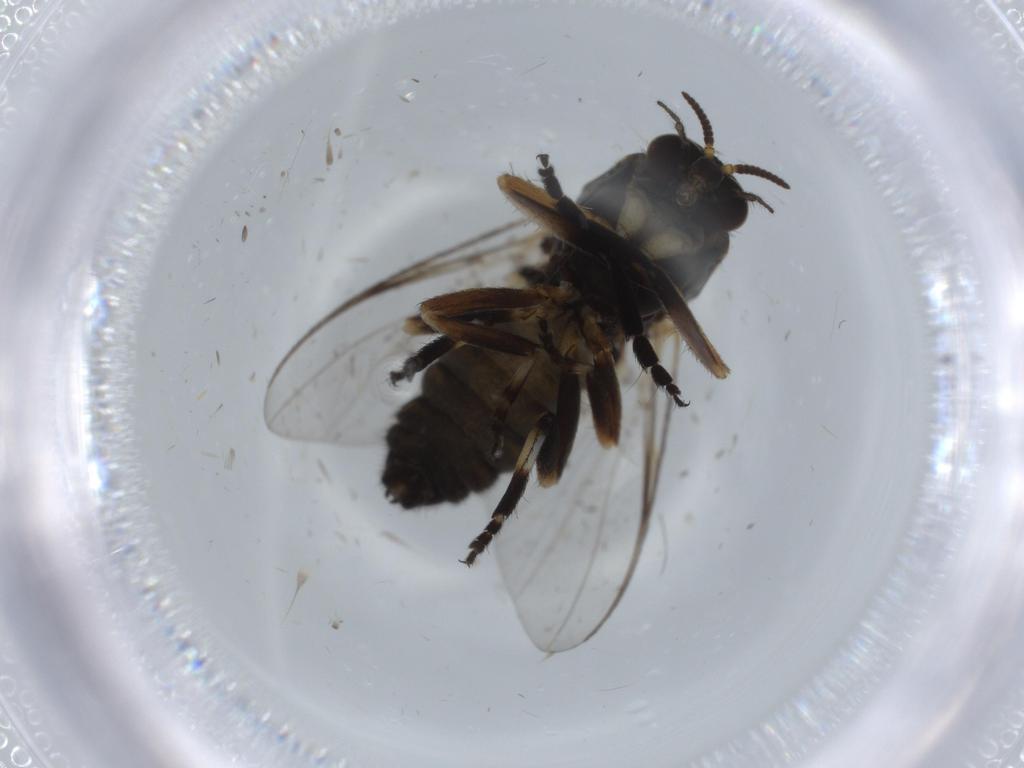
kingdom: Animalia
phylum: Arthropoda
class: Insecta
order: Diptera
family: Ceratopogonidae
